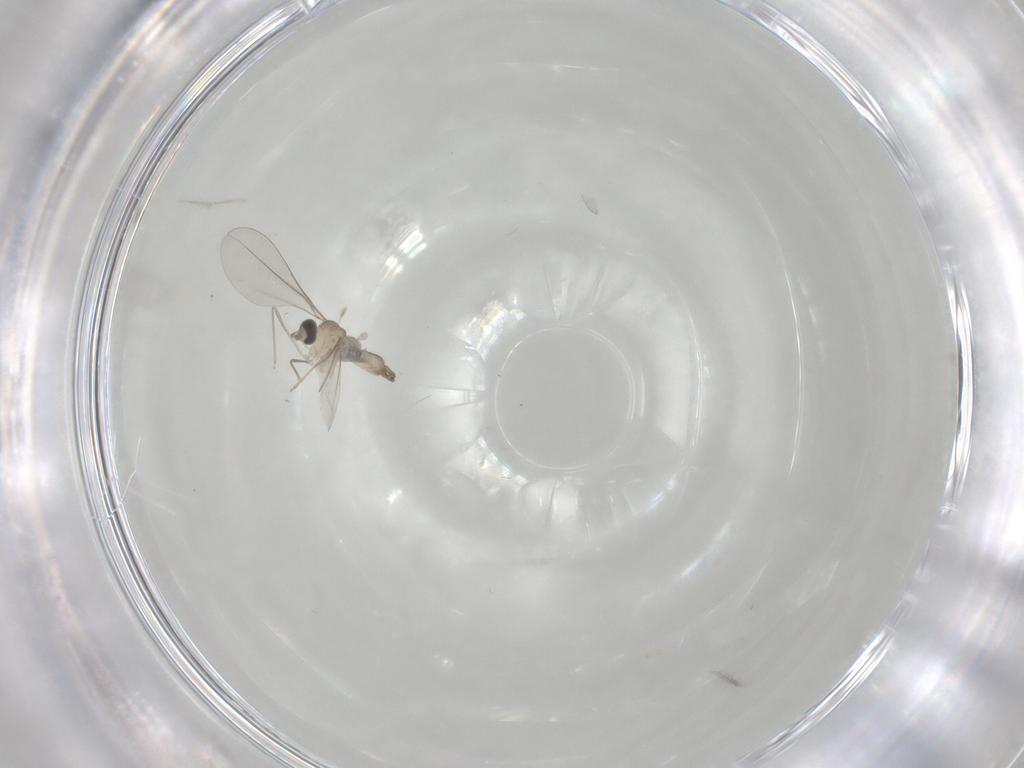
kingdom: Animalia
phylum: Arthropoda
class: Insecta
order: Diptera
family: Cecidomyiidae
